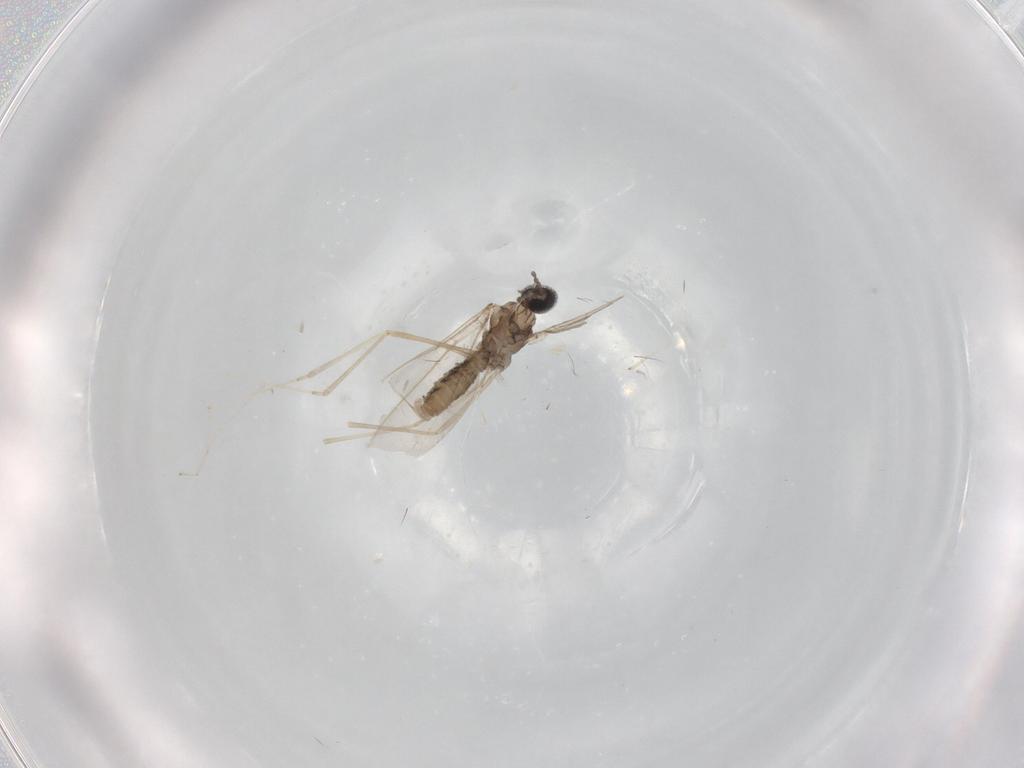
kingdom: Animalia
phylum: Arthropoda
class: Insecta
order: Diptera
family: Cecidomyiidae
